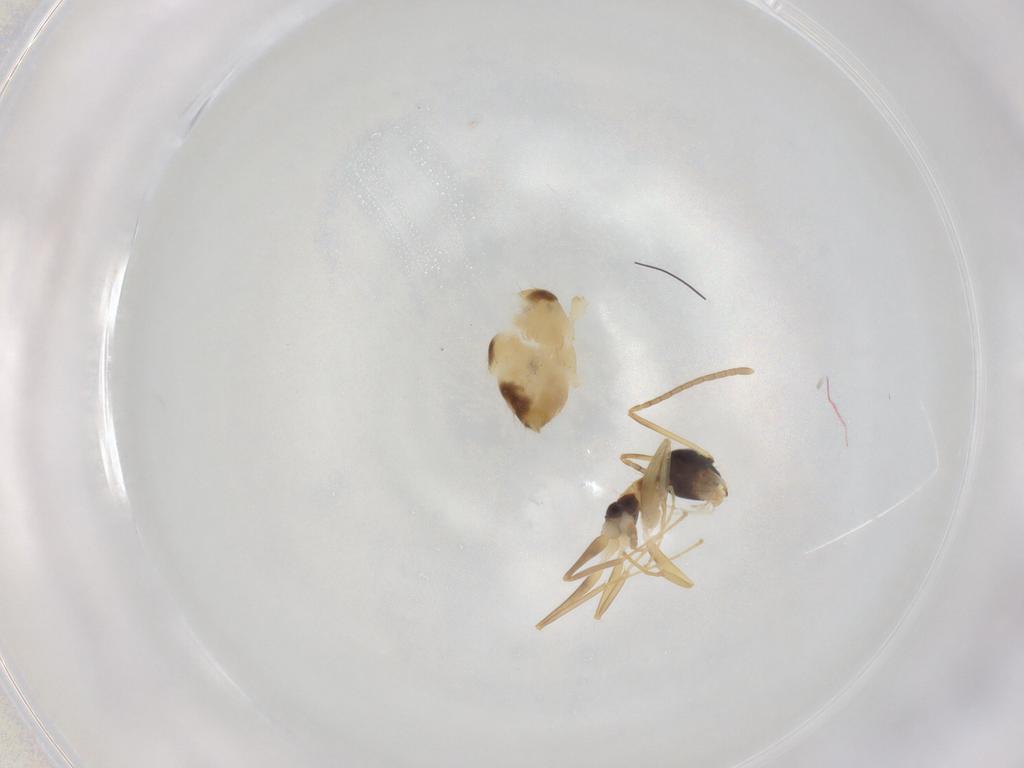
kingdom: Animalia
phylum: Arthropoda
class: Insecta
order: Hymenoptera
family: Formicidae
